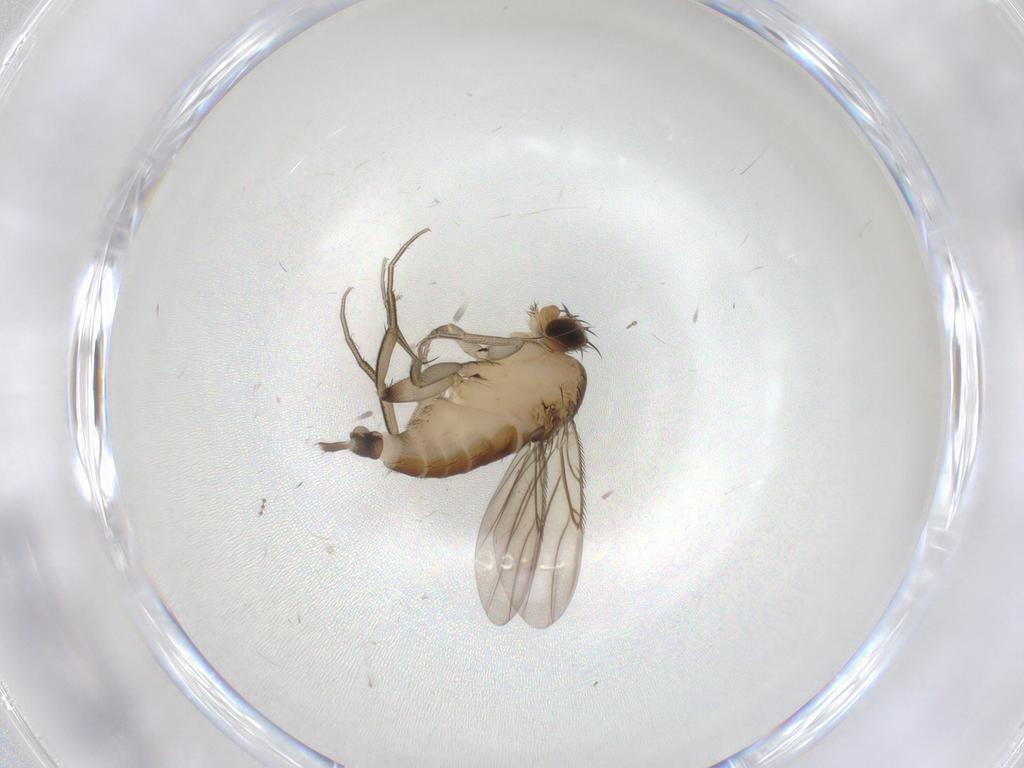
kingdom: Animalia
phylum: Arthropoda
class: Insecta
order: Diptera
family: Phoridae
